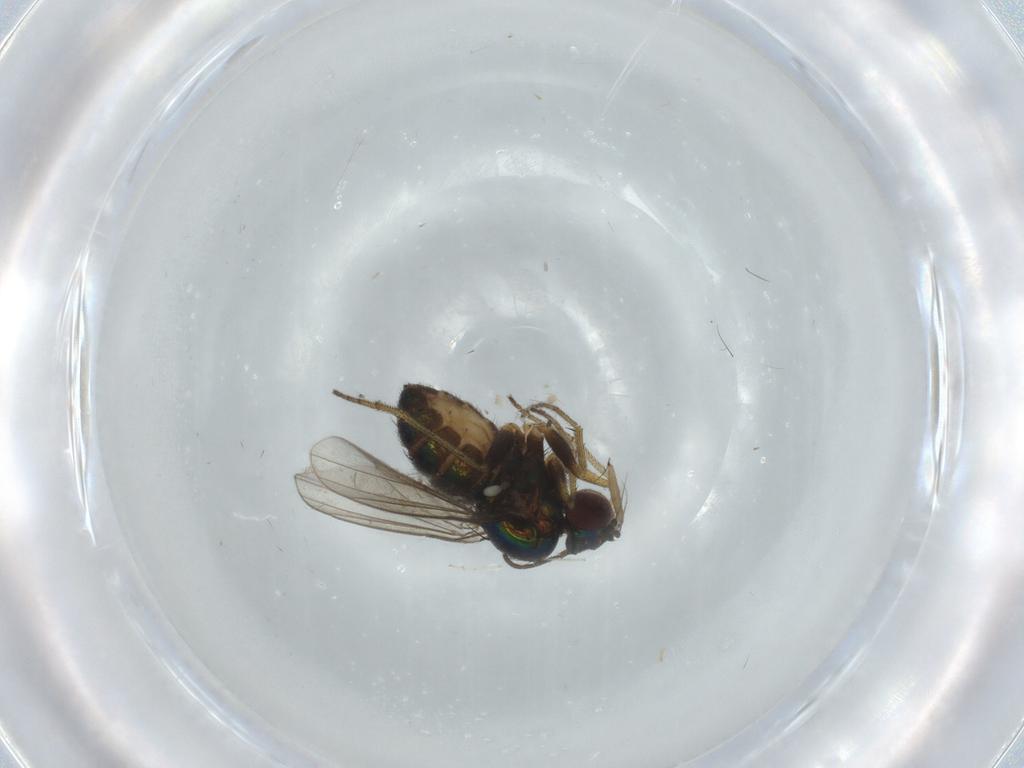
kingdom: Animalia
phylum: Arthropoda
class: Insecta
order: Diptera
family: Dolichopodidae
